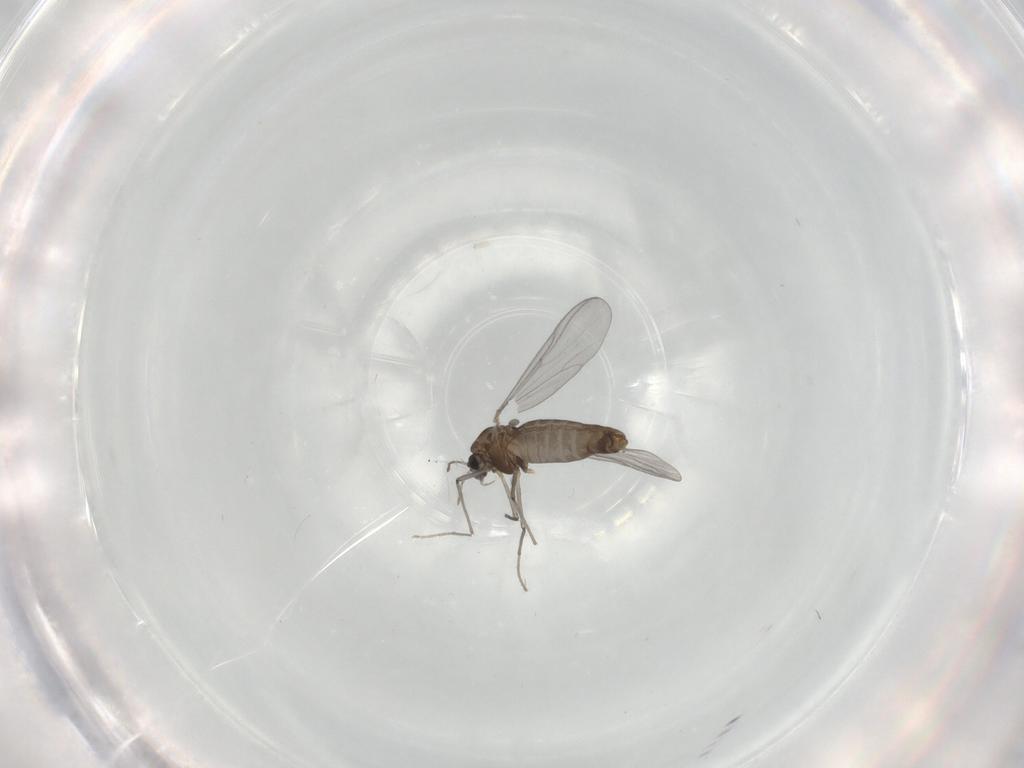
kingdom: Animalia
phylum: Arthropoda
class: Insecta
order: Diptera
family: Chironomidae
